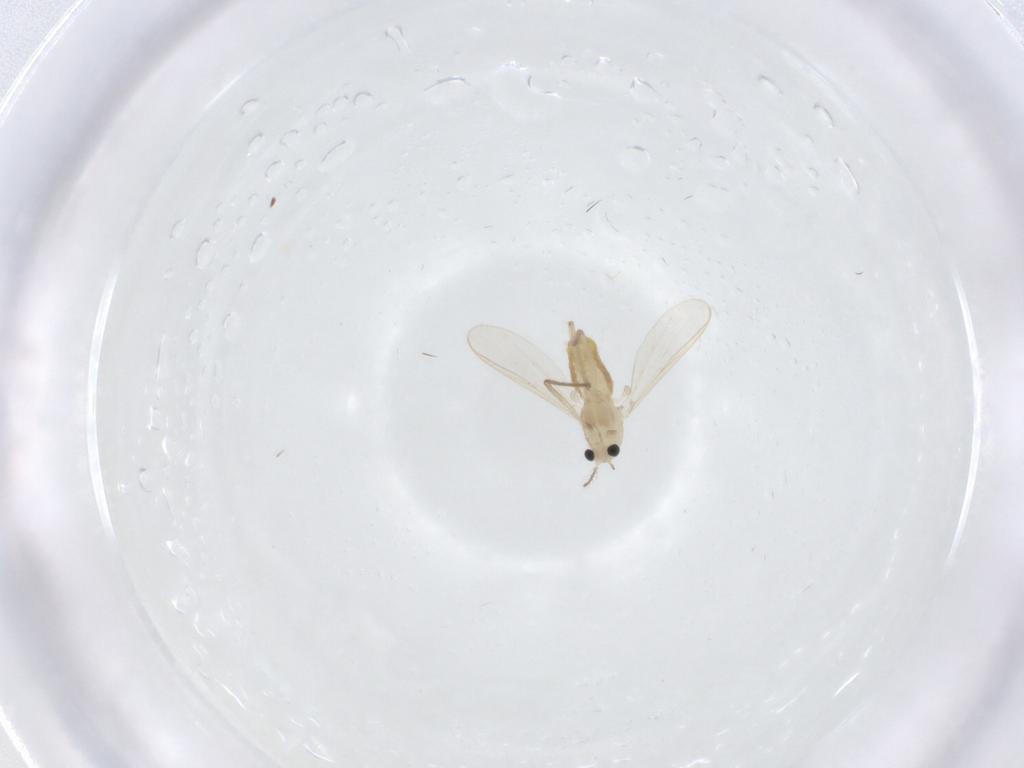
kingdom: Animalia
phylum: Arthropoda
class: Insecta
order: Diptera
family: Chironomidae
